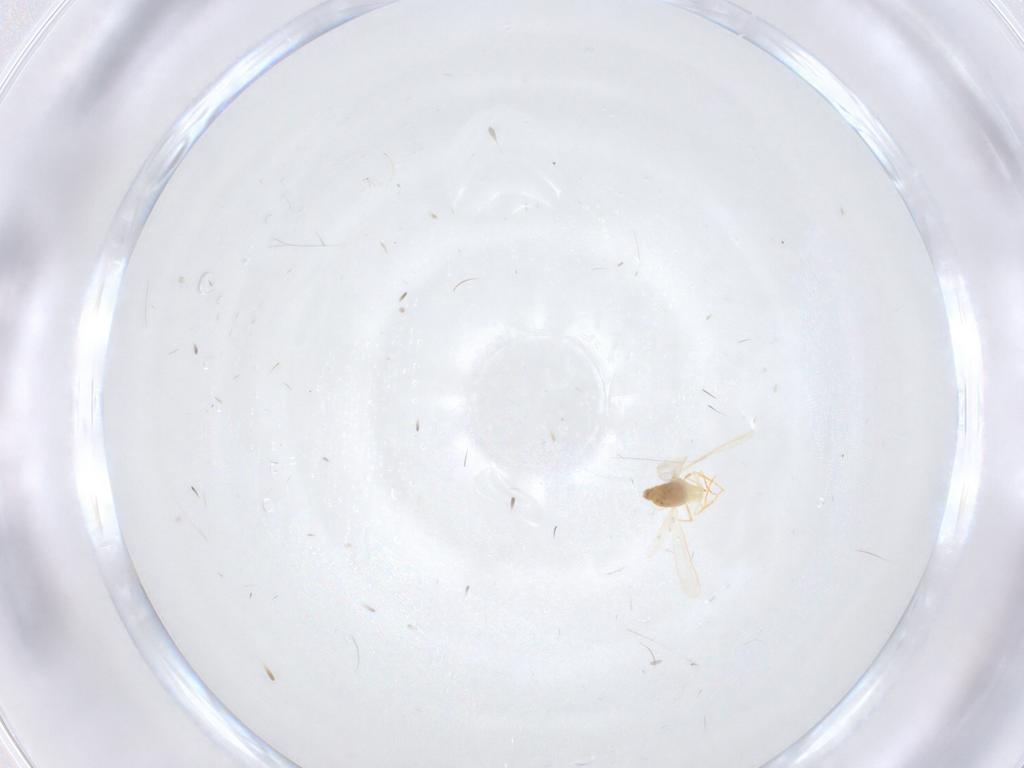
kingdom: Animalia
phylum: Arthropoda
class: Insecta
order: Hemiptera
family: Aleyrodidae
